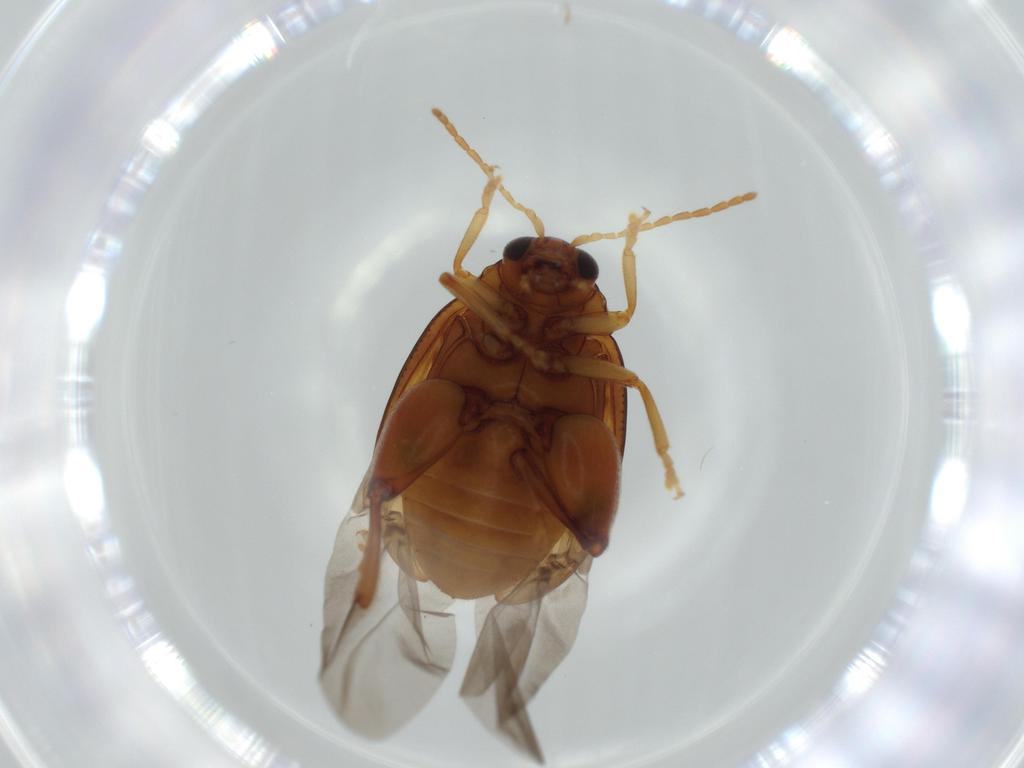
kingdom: Animalia
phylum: Arthropoda
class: Insecta
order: Coleoptera
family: Chrysomelidae
